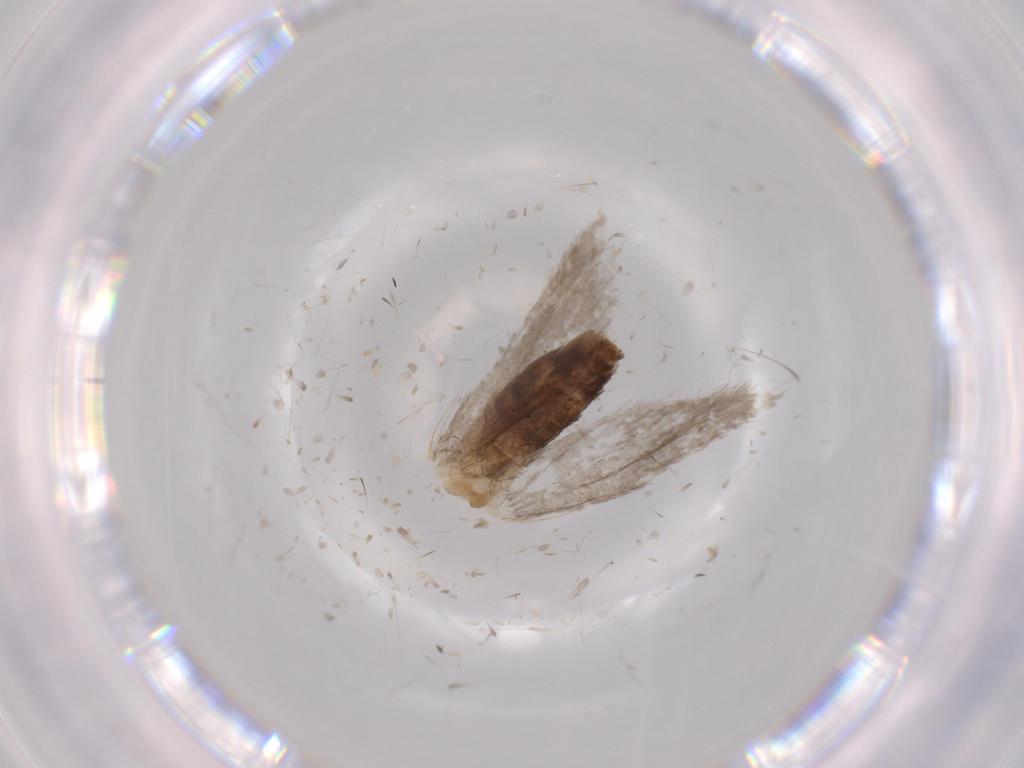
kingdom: Animalia
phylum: Arthropoda
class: Insecta
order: Lepidoptera
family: Tineidae
